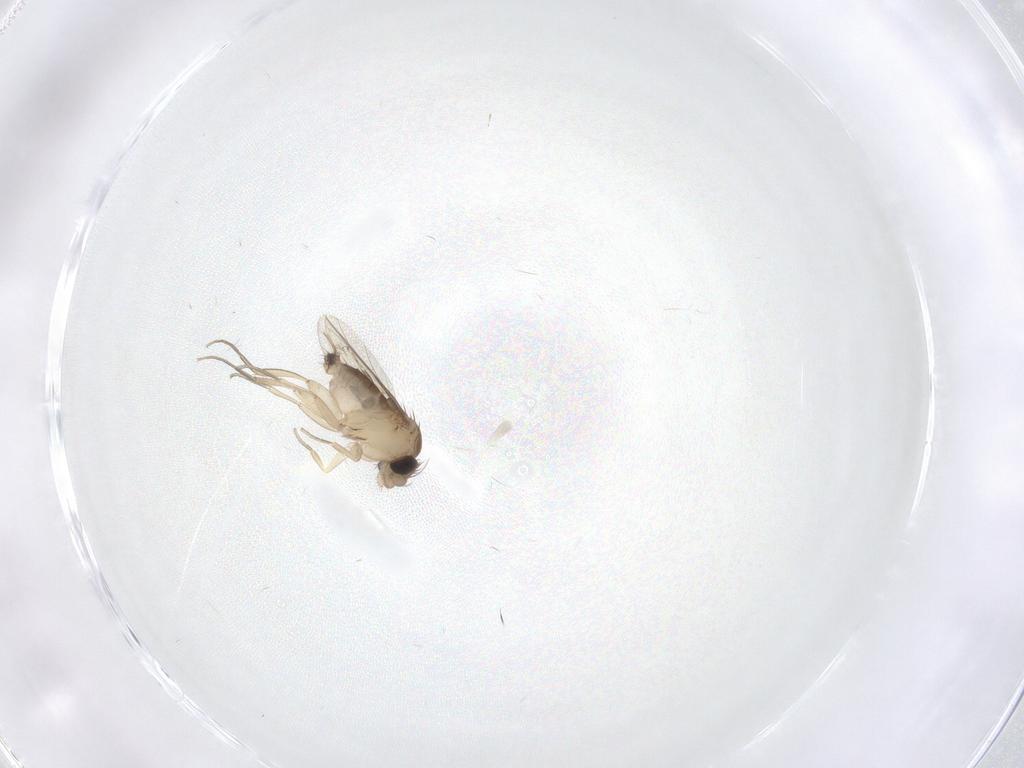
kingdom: Animalia
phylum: Arthropoda
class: Insecta
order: Diptera
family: Phoridae
